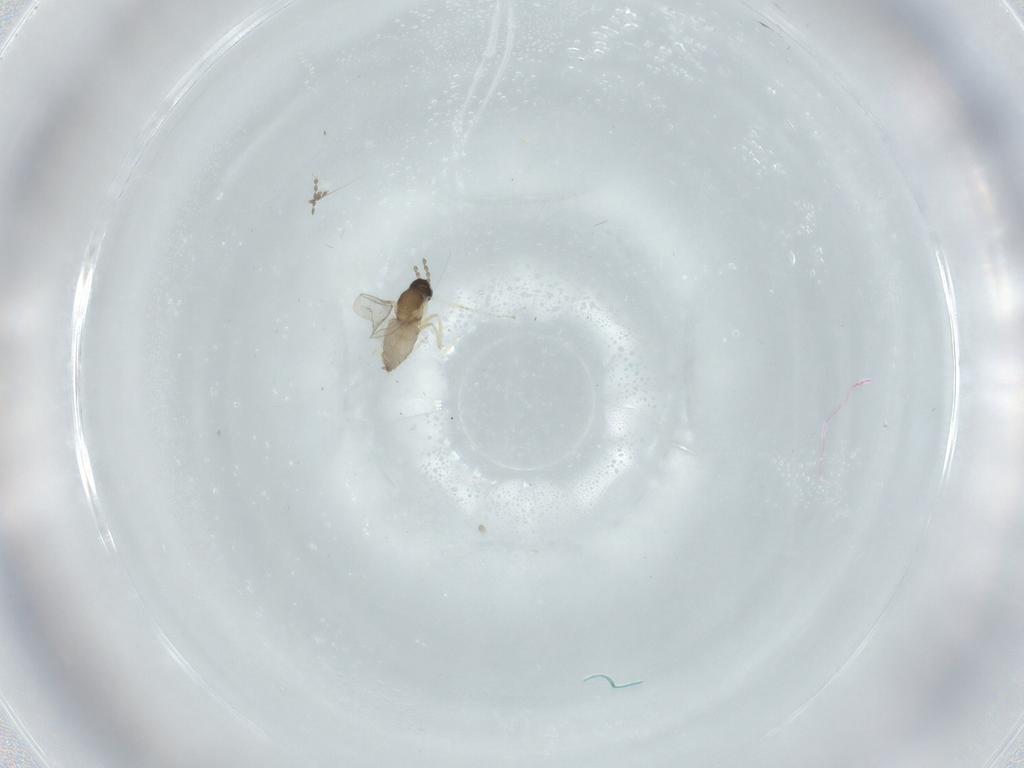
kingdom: Animalia
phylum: Arthropoda
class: Insecta
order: Diptera
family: Cecidomyiidae
